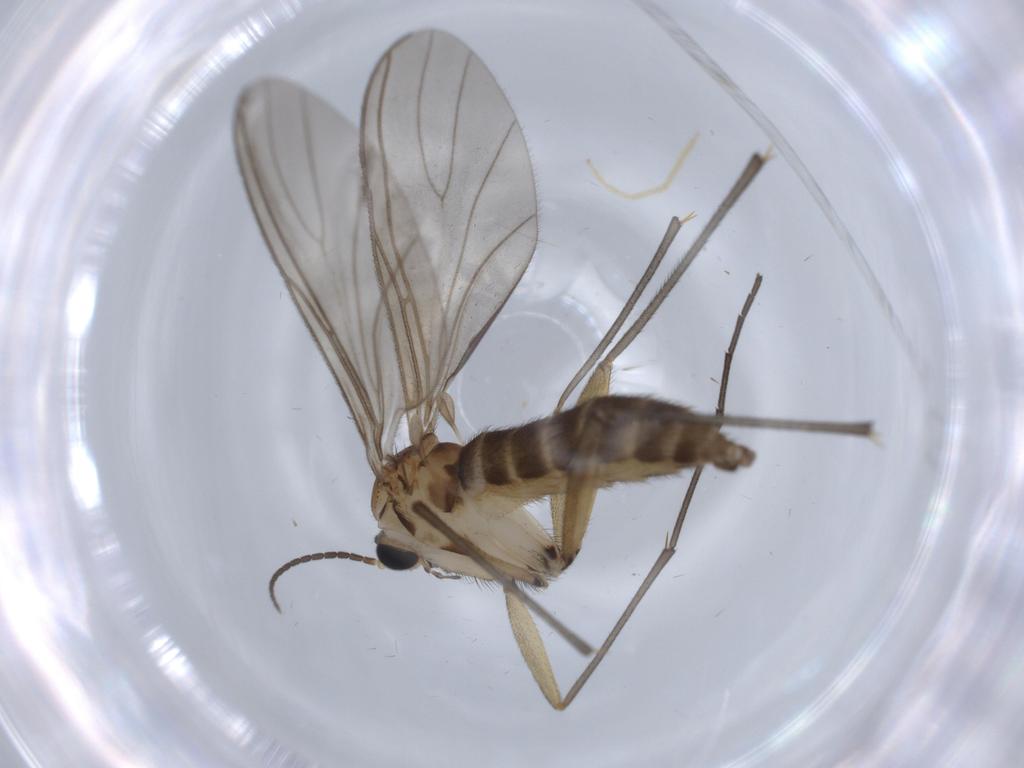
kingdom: Animalia
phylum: Arthropoda
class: Insecta
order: Diptera
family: Sciaridae
